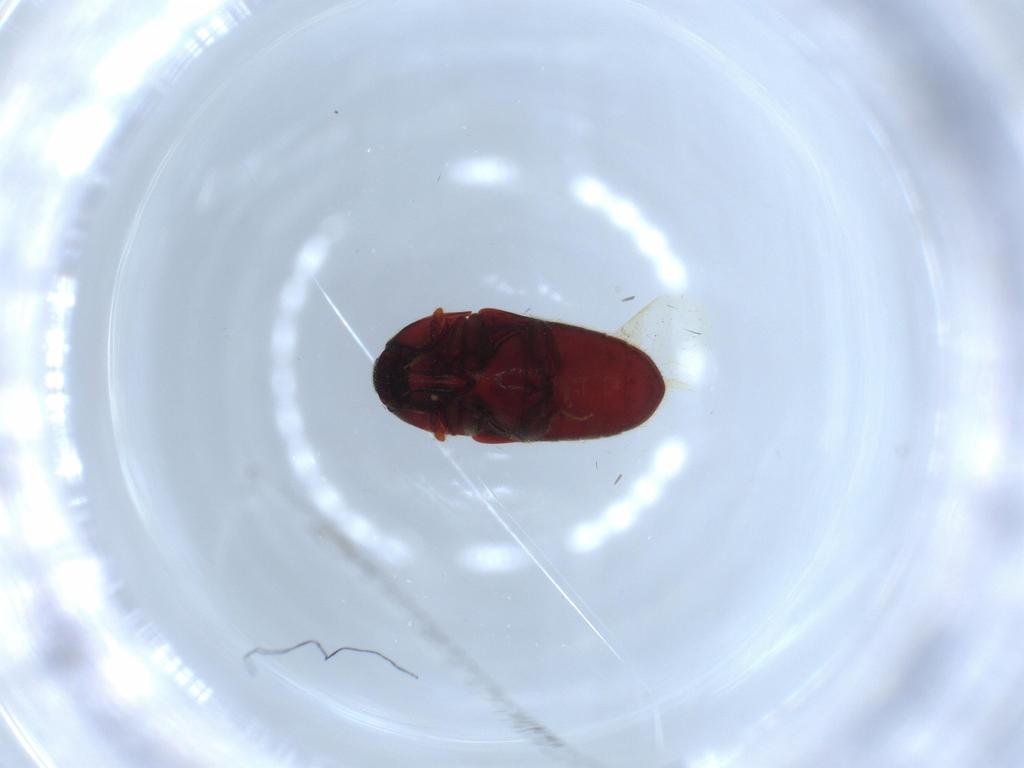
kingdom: Animalia
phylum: Arthropoda
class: Insecta
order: Coleoptera
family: Throscidae
